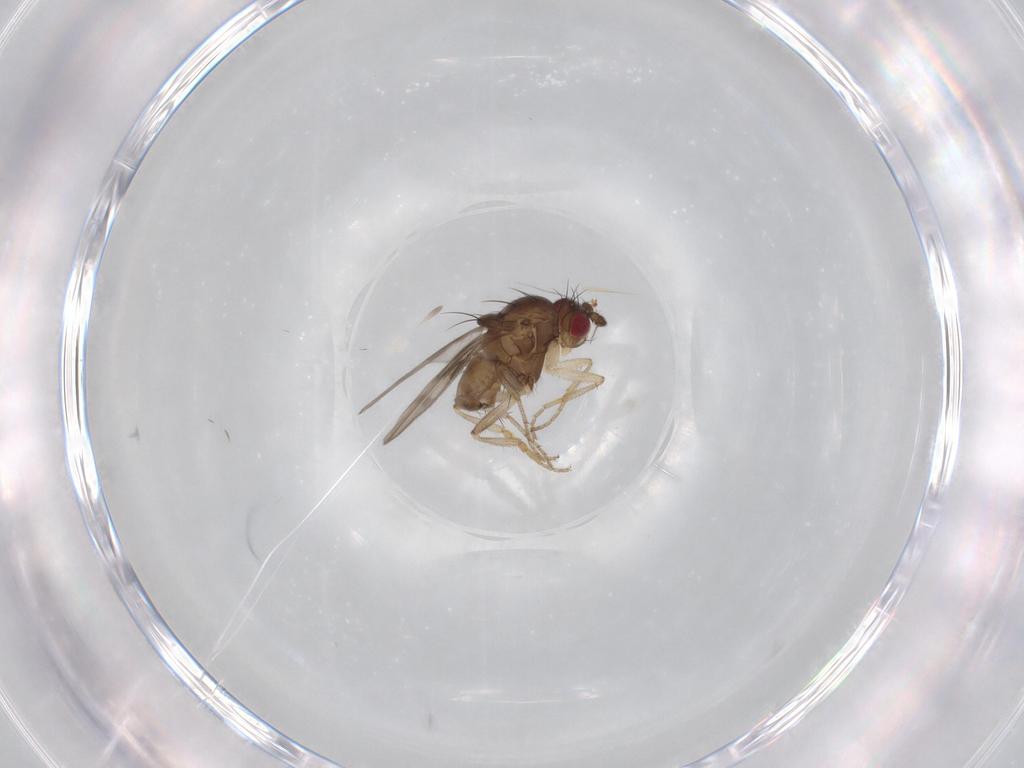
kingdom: Animalia
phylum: Arthropoda
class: Insecta
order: Diptera
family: Sphaeroceridae
